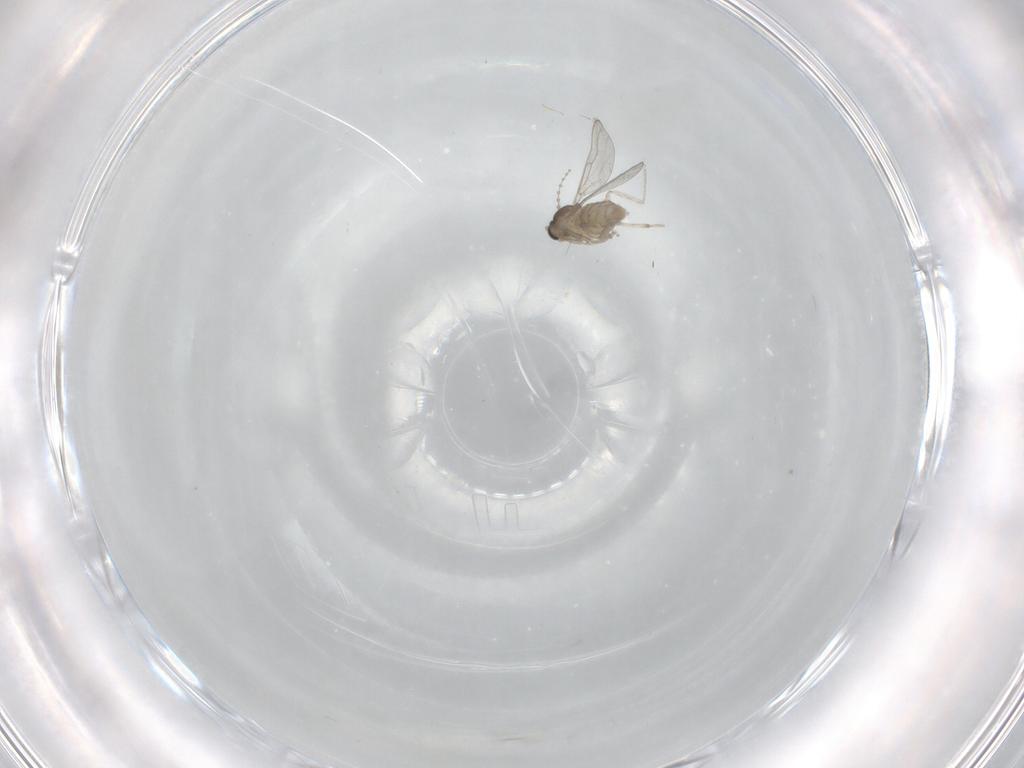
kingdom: Animalia
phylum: Arthropoda
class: Insecta
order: Diptera
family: Cecidomyiidae
